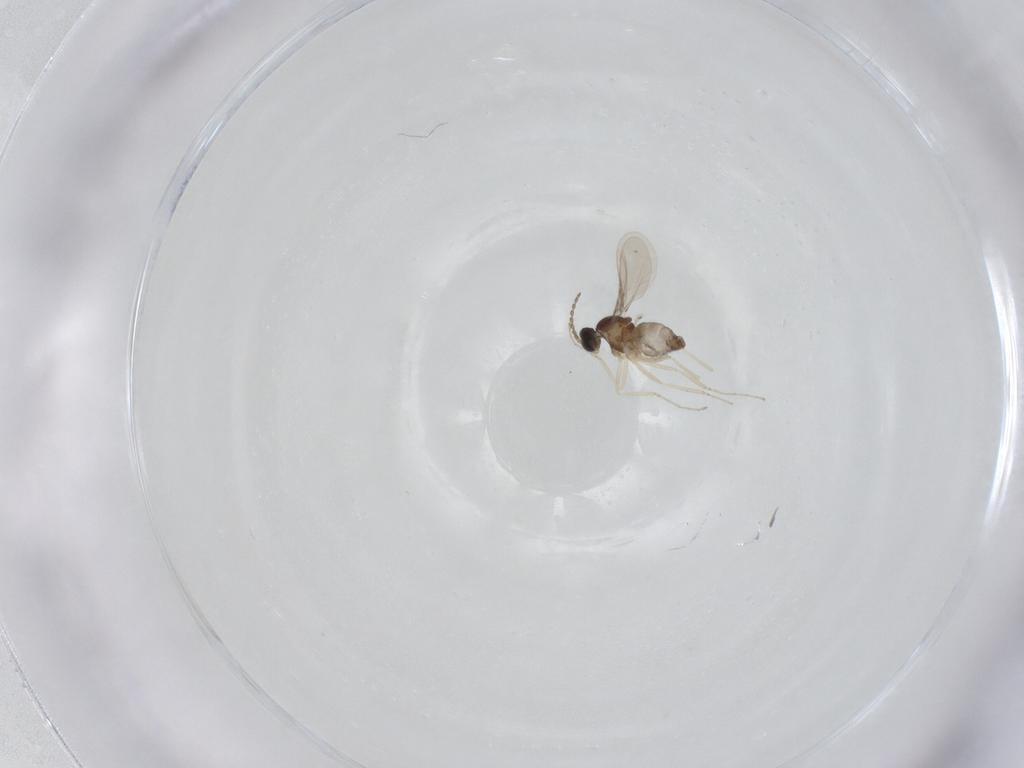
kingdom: Animalia
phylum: Arthropoda
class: Insecta
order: Diptera
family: Cecidomyiidae
